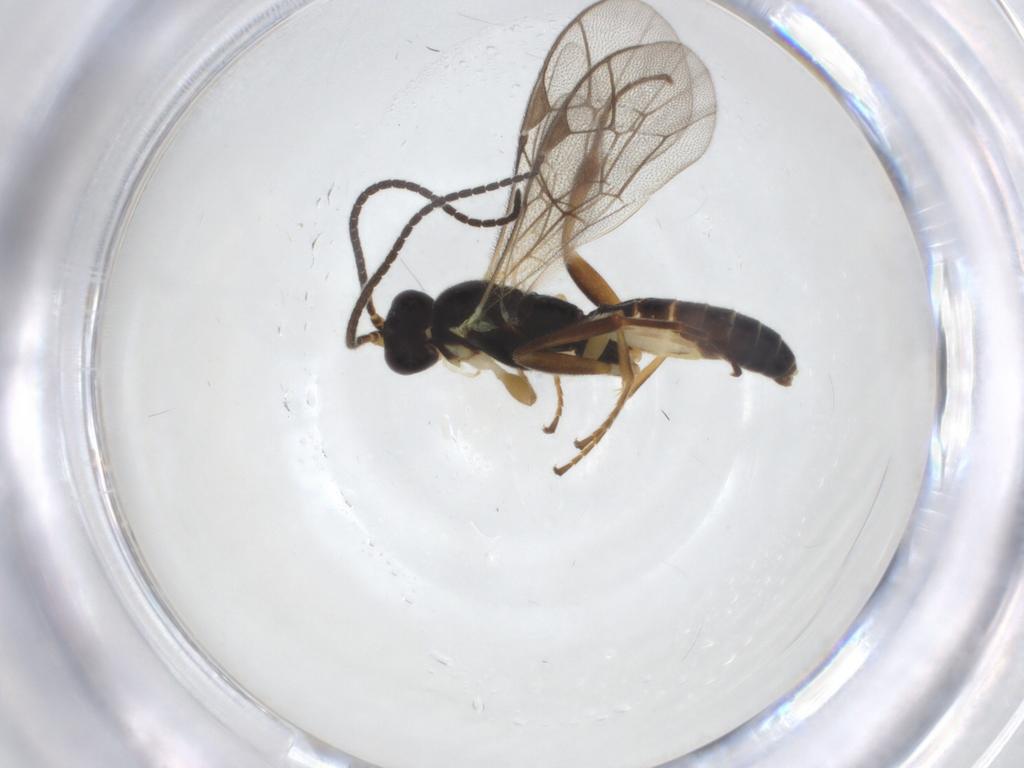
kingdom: Animalia
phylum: Arthropoda
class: Insecta
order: Hymenoptera
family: Ichneumonidae
